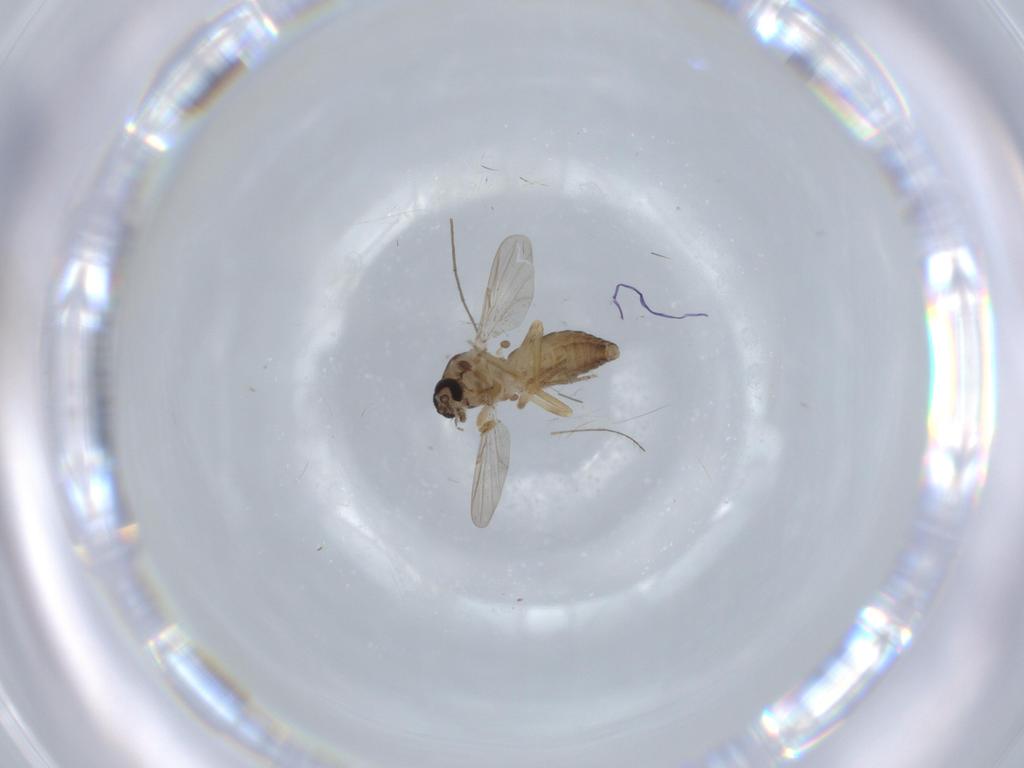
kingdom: Animalia
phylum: Arthropoda
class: Insecta
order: Diptera
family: Ceratopogonidae
